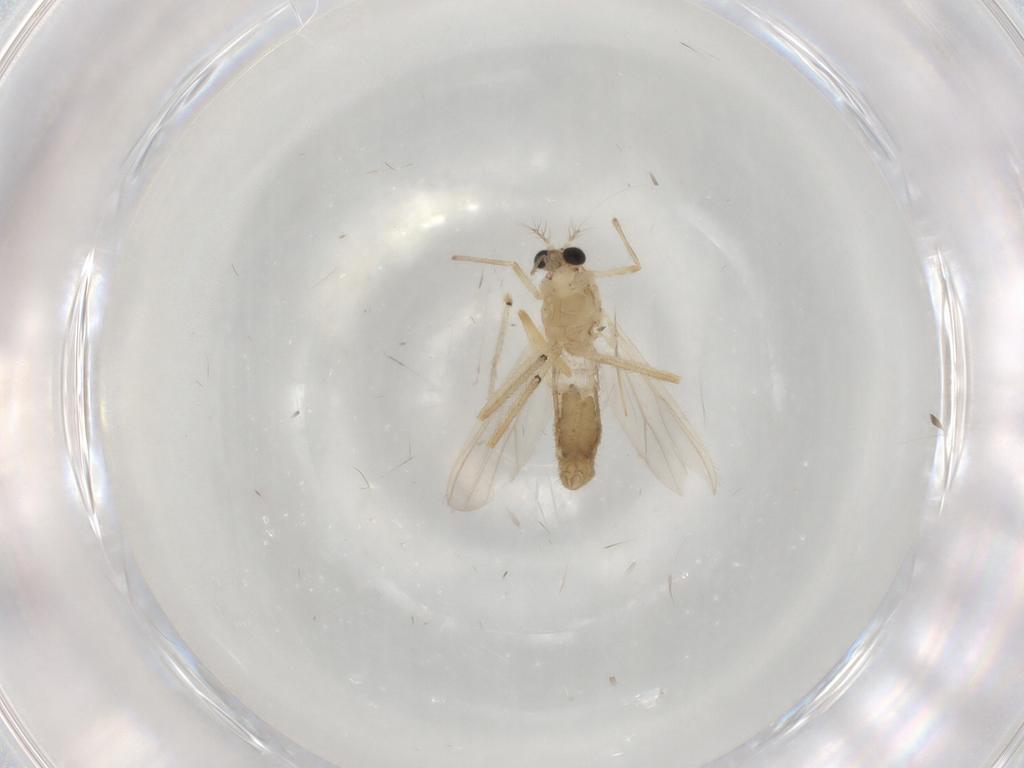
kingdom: Animalia
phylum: Arthropoda
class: Insecta
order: Diptera
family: Chironomidae
